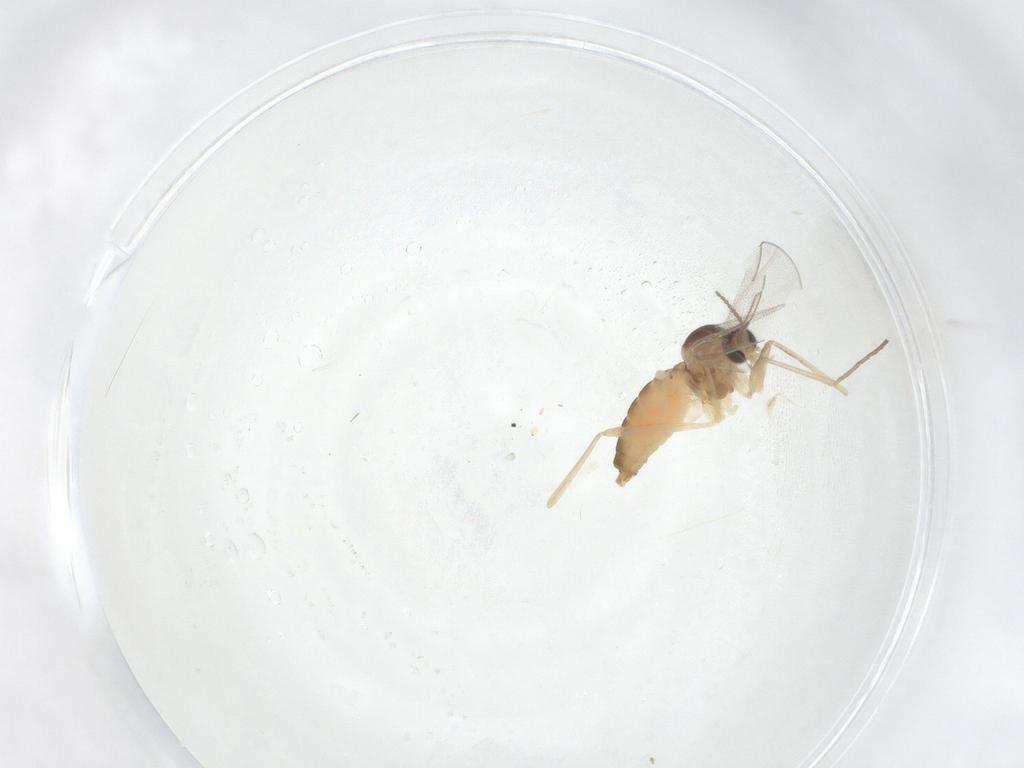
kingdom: Animalia
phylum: Arthropoda
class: Insecta
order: Diptera
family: Cecidomyiidae
